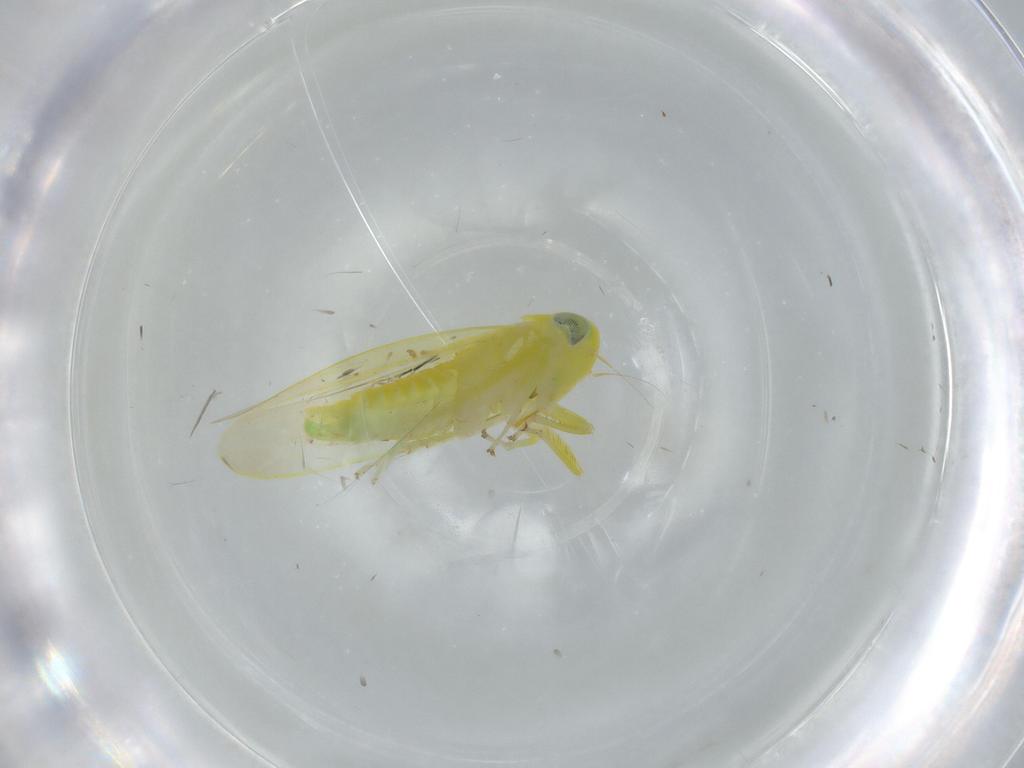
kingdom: Animalia
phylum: Arthropoda
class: Insecta
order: Hemiptera
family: Cicadellidae
